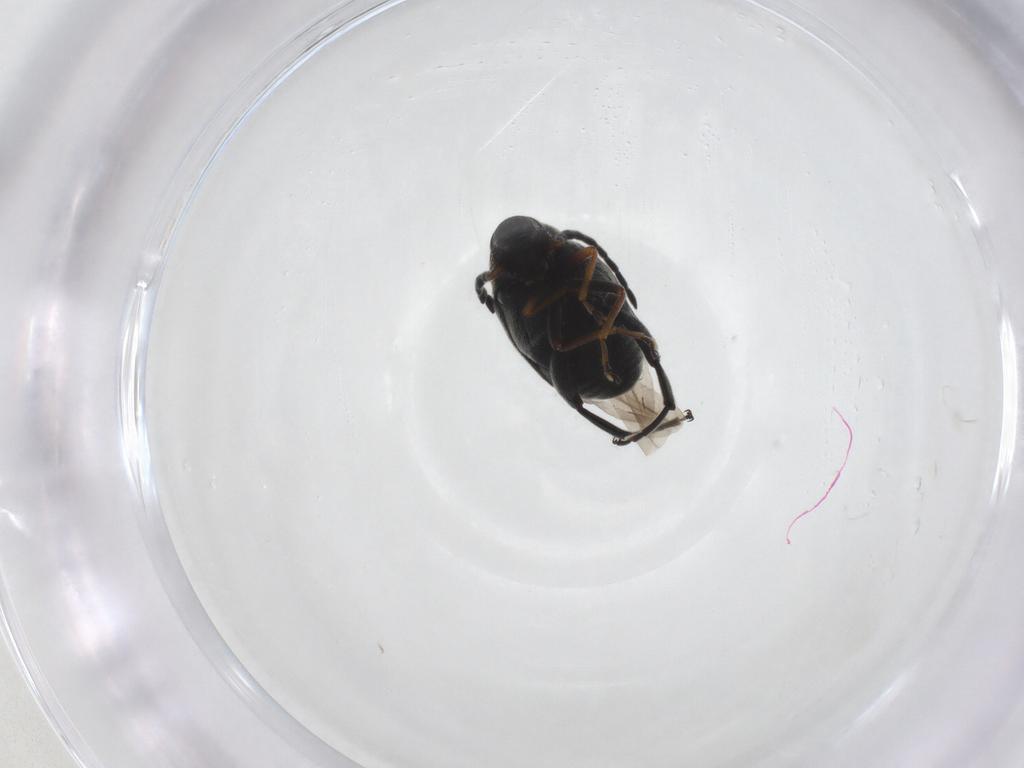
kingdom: Animalia
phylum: Arthropoda
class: Insecta
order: Coleoptera
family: Chrysomelidae
